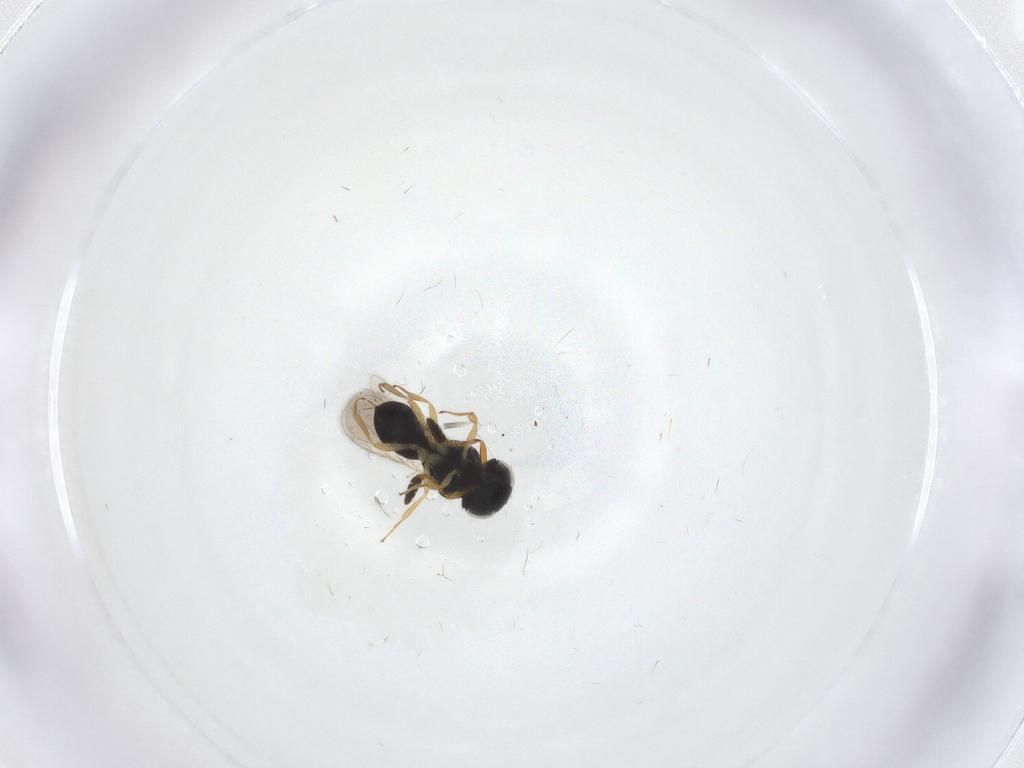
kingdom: Animalia
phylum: Arthropoda
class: Insecta
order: Hymenoptera
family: Scelionidae
